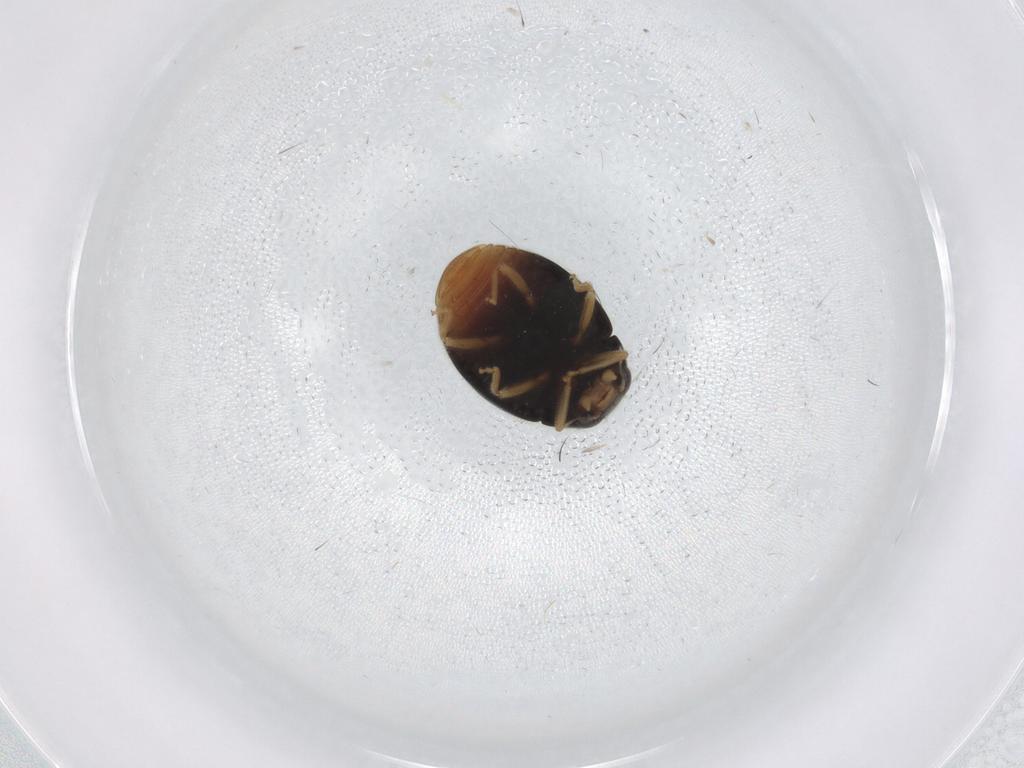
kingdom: Animalia
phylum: Arthropoda
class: Insecta
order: Coleoptera
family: Coccinellidae
